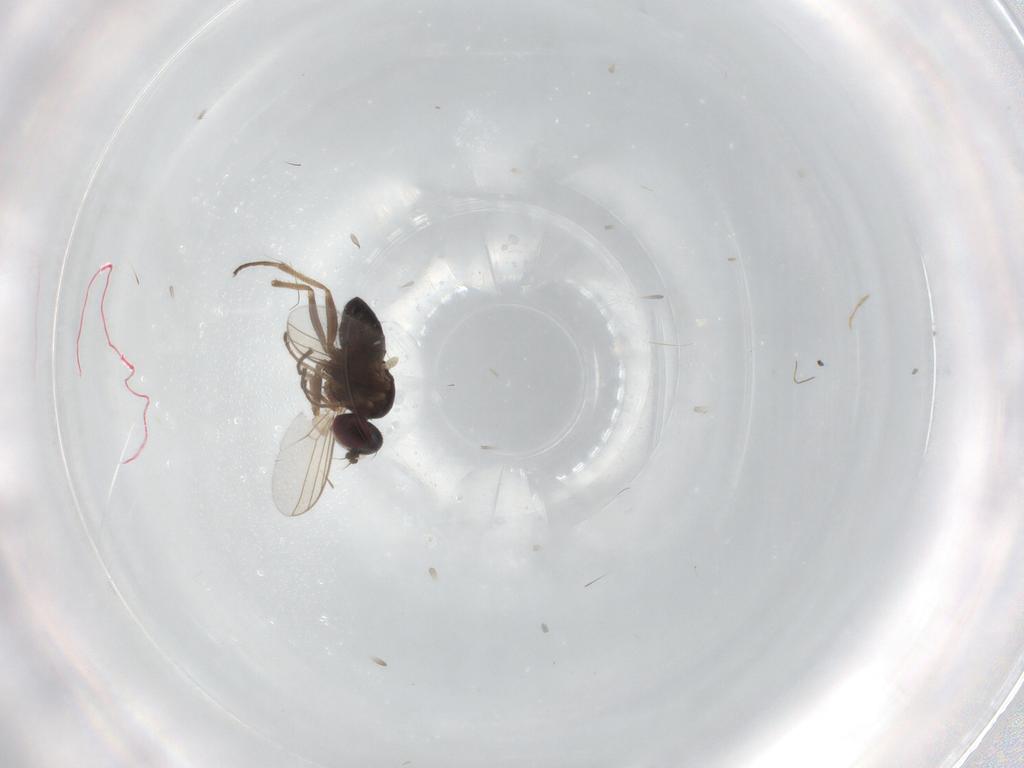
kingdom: Animalia
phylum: Arthropoda
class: Insecta
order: Diptera
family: Dolichopodidae
